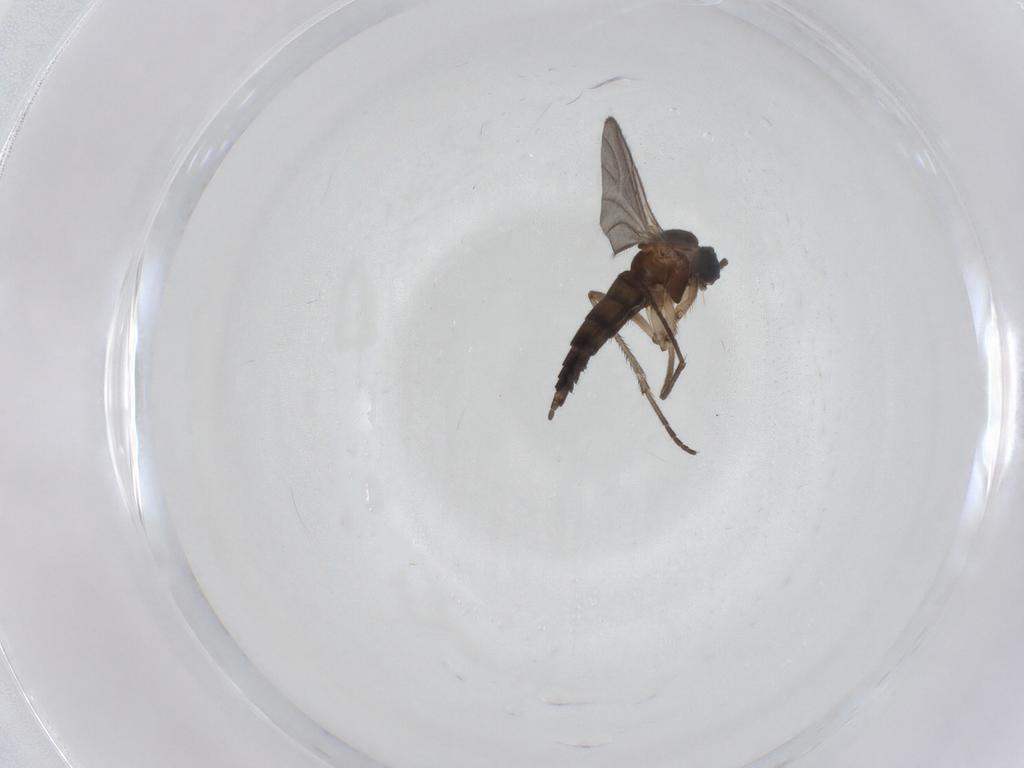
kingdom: Animalia
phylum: Arthropoda
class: Insecta
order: Diptera
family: Sciaridae
